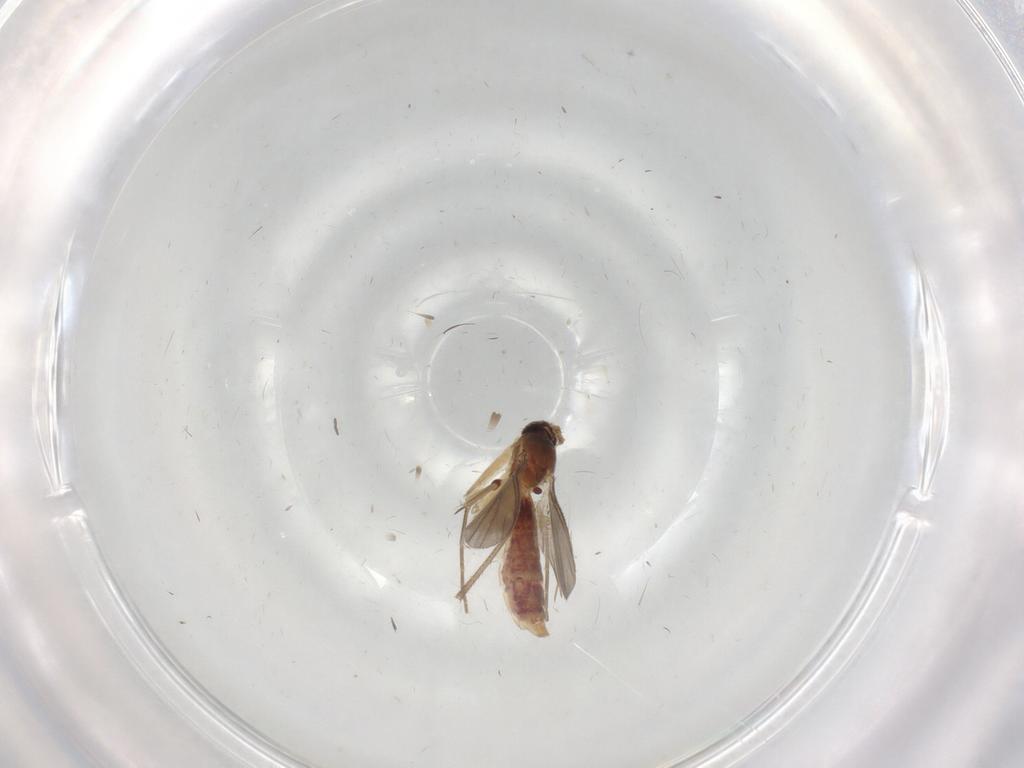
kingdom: Animalia
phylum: Arthropoda
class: Insecta
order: Diptera
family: Mycetophilidae
